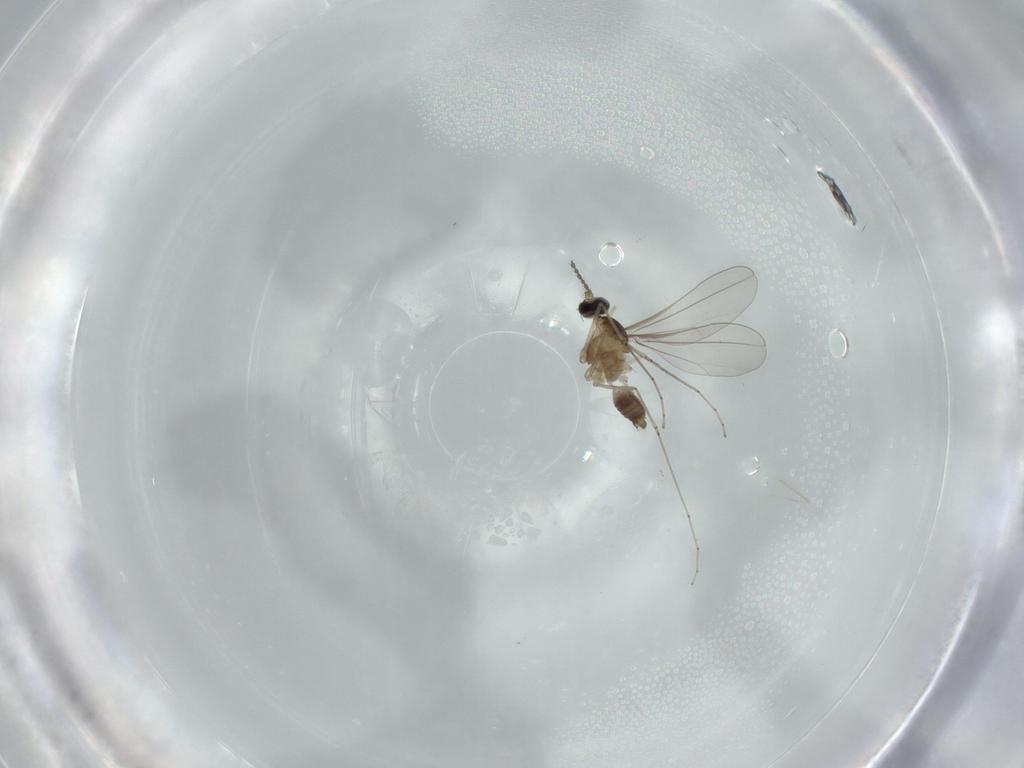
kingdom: Animalia
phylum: Arthropoda
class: Insecta
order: Diptera
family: Cecidomyiidae
